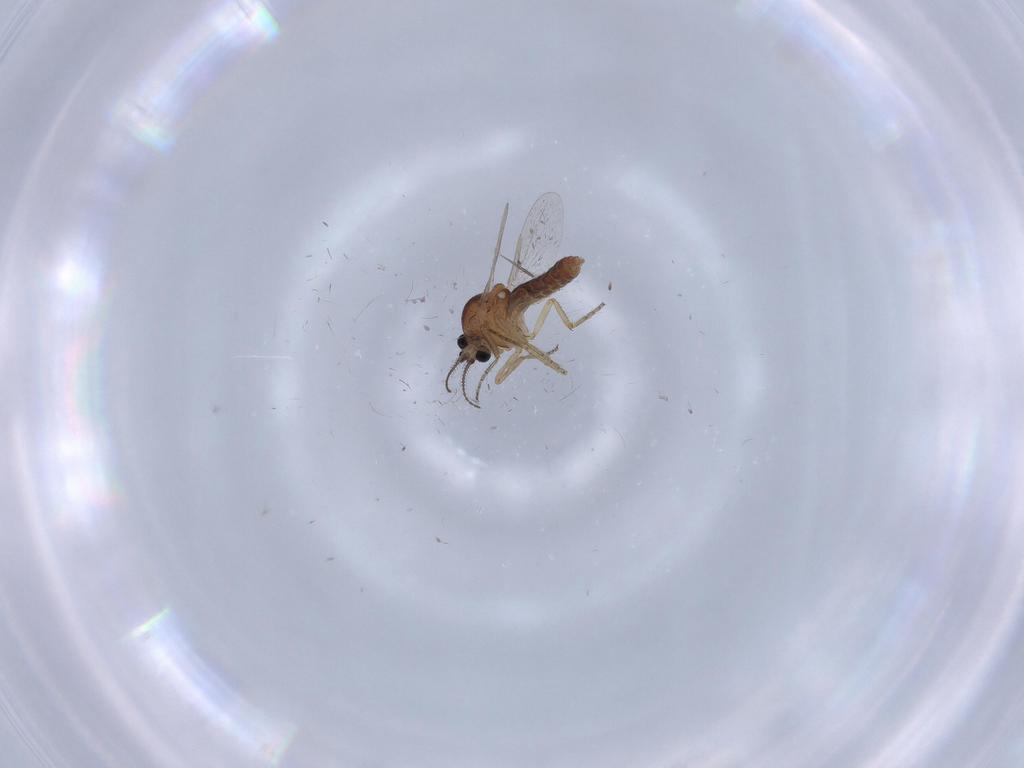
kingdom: Animalia
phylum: Arthropoda
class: Insecta
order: Diptera
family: Ceratopogonidae
